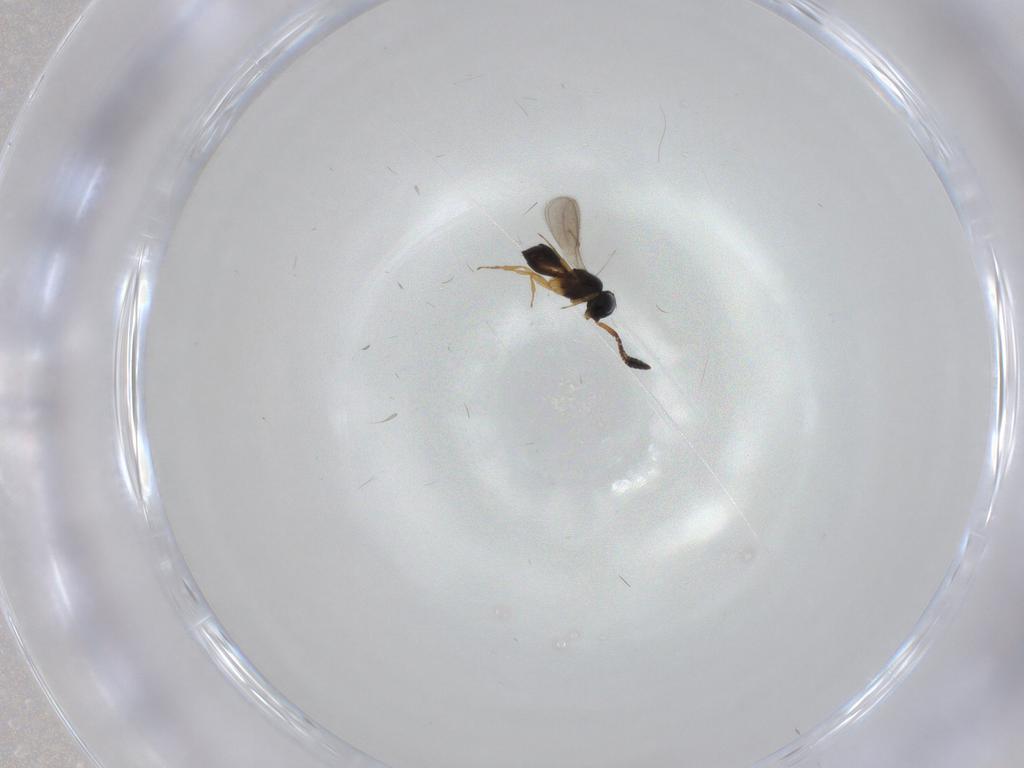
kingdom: Animalia
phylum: Arthropoda
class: Insecta
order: Hymenoptera
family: Scelionidae
